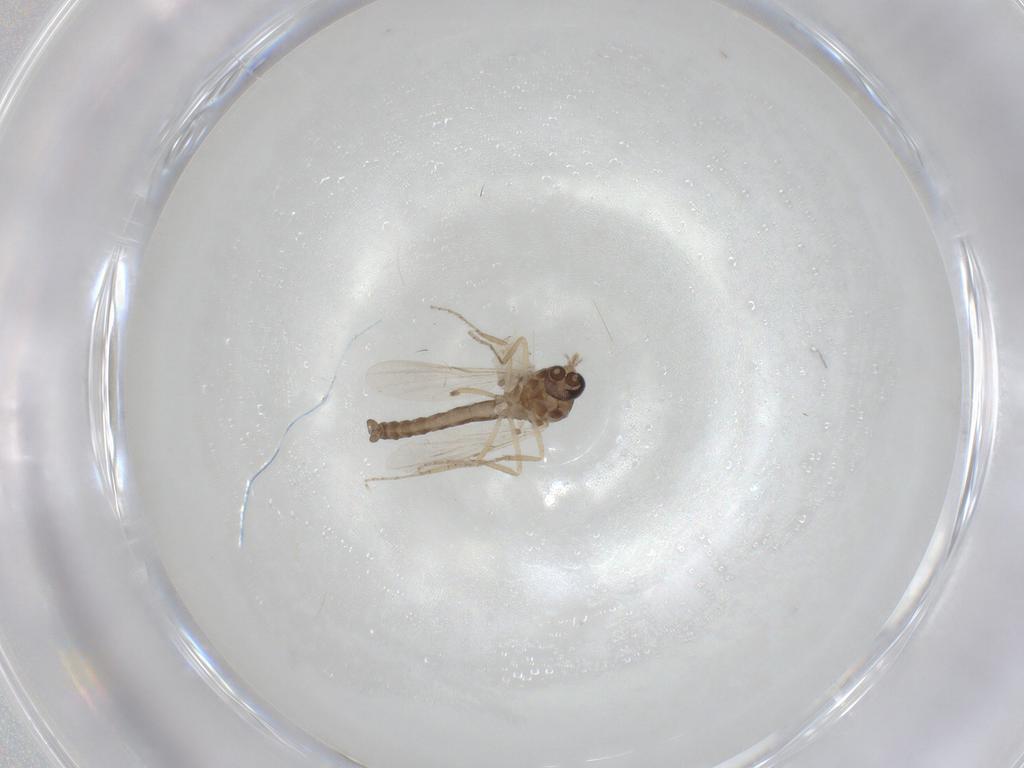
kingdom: Animalia
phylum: Arthropoda
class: Insecta
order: Diptera
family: Ceratopogonidae
